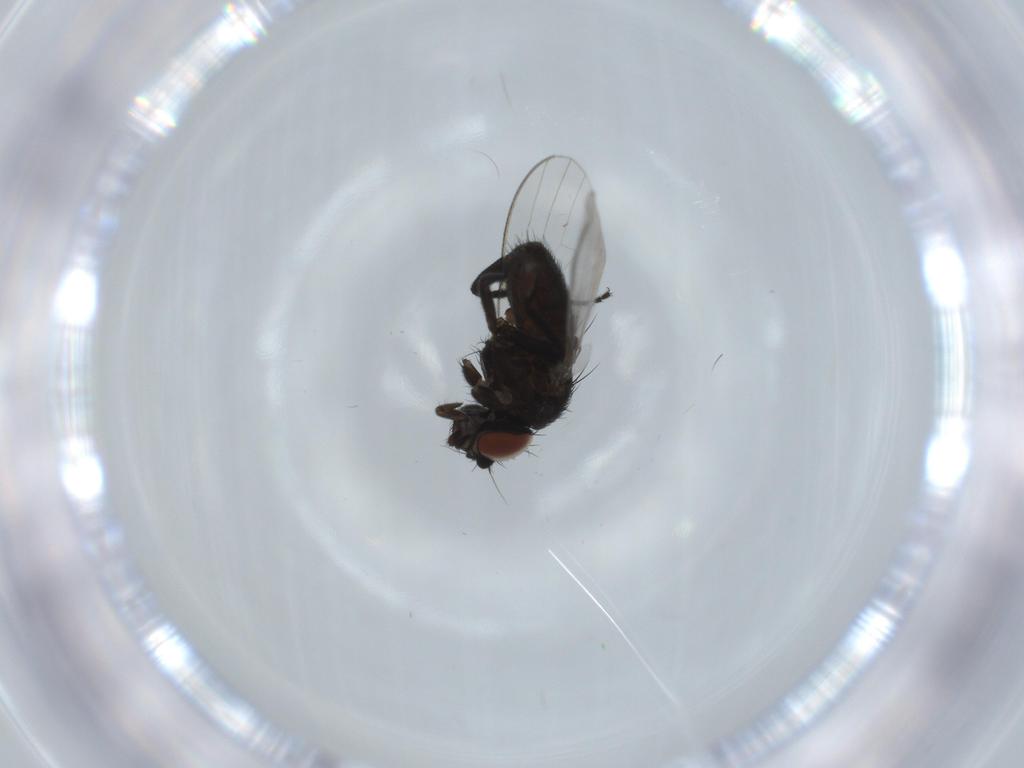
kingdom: Animalia
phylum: Arthropoda
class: Insecta
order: Diptera
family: Milichiidae
